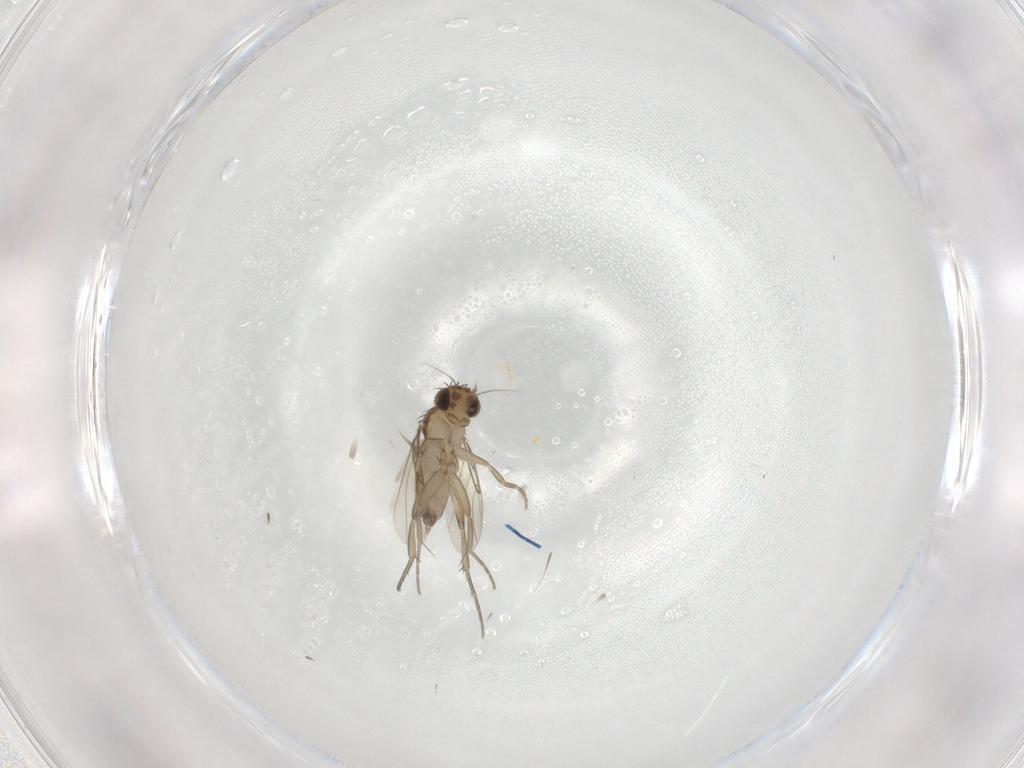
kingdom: Animalia
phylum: Arthropoda
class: Insecta
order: Diptera
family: Phoridae
